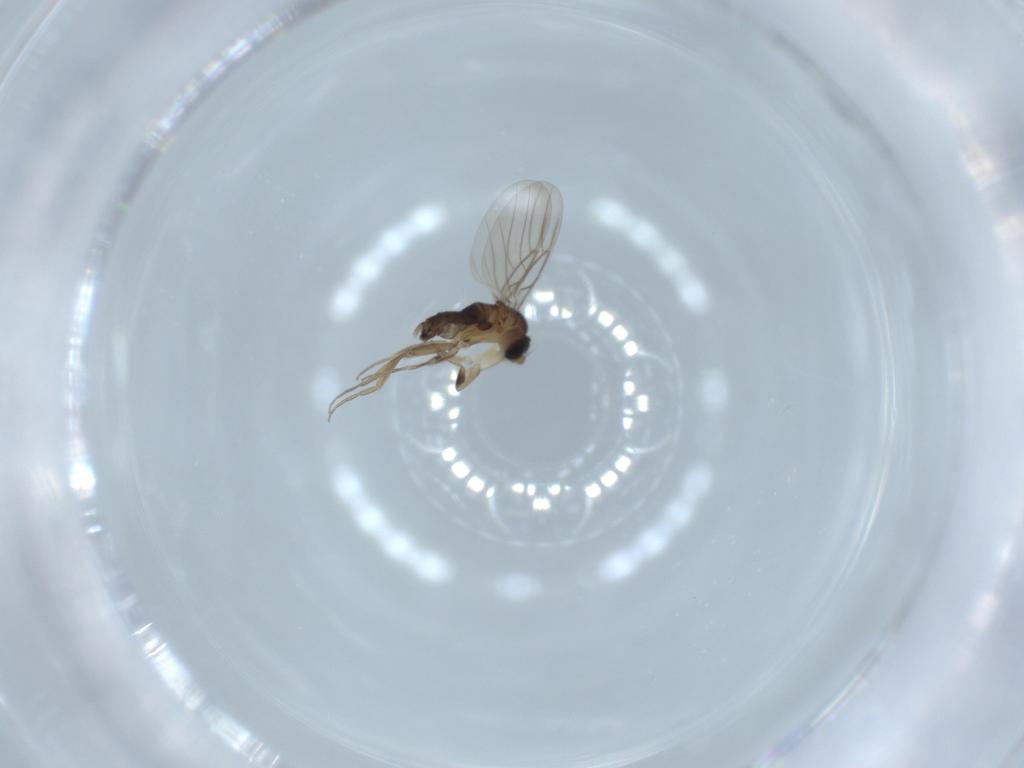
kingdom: Animalia
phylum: Arthropoda
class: Insecta
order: Diptera
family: Phoridae
